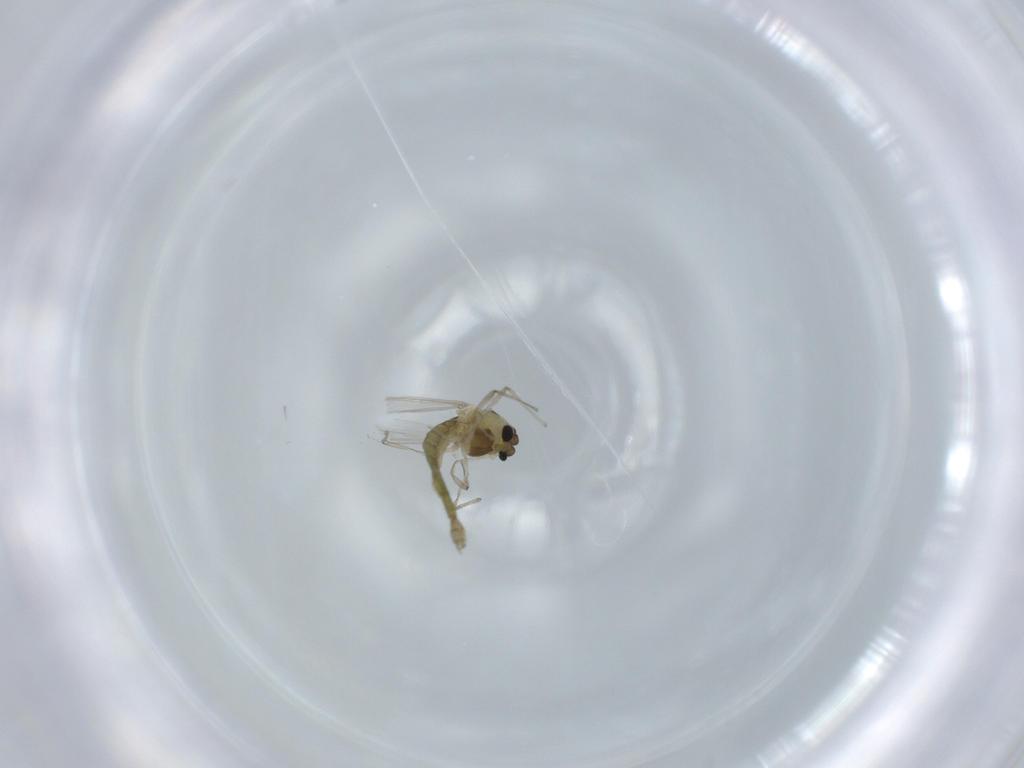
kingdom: Animalia
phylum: Arthropoda
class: Insecta
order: Diptera
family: Chironomidae
